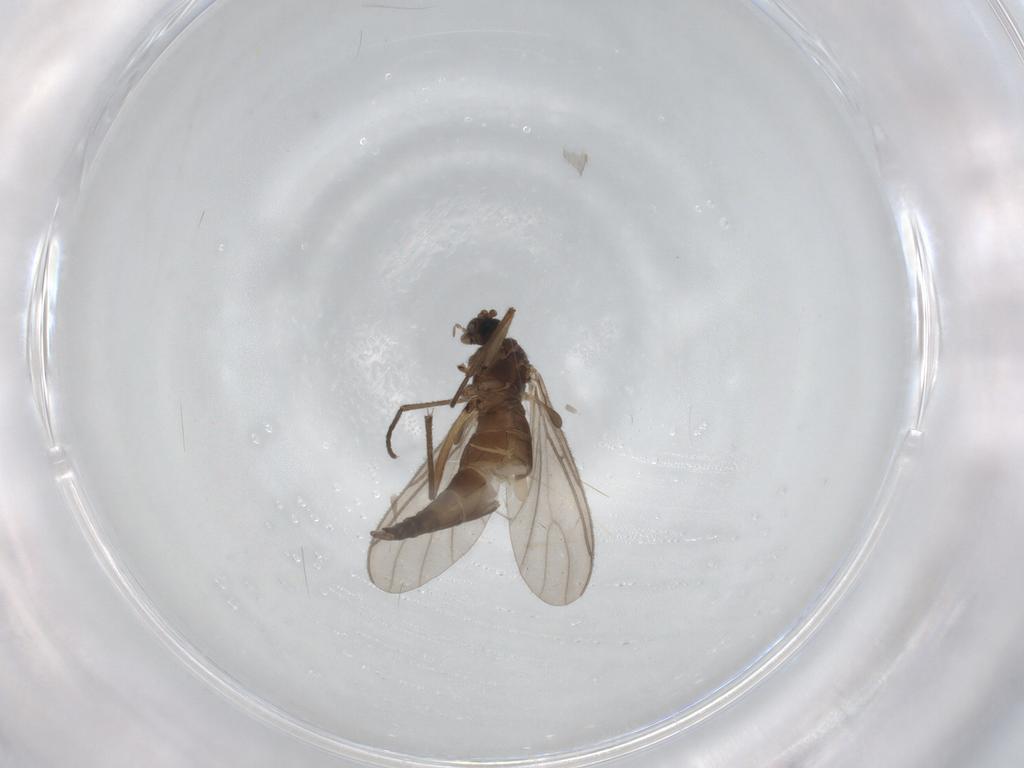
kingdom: Animalia
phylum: Arthropoda
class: Insecta
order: Diptera
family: Sciaridae
